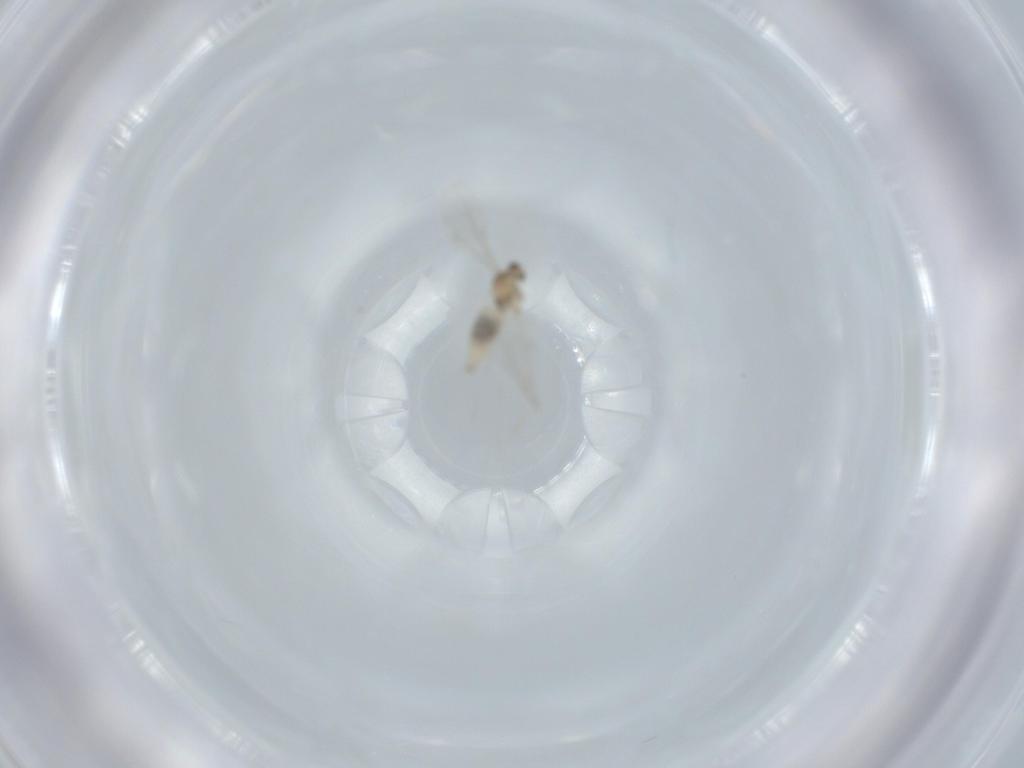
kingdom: Animalia
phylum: Arthropoda
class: Insecta
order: Diptera
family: Cecidomyiidae
